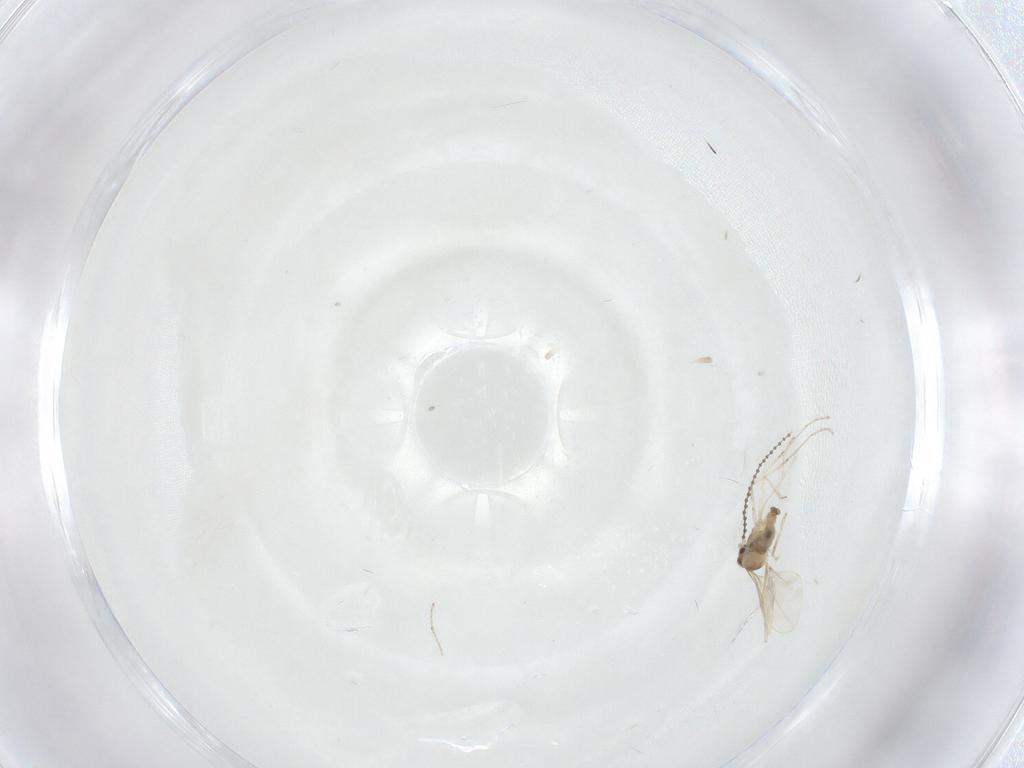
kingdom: Animalia
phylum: Arthropoda
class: Insecta
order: Diptera
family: Cecidomyiidae
